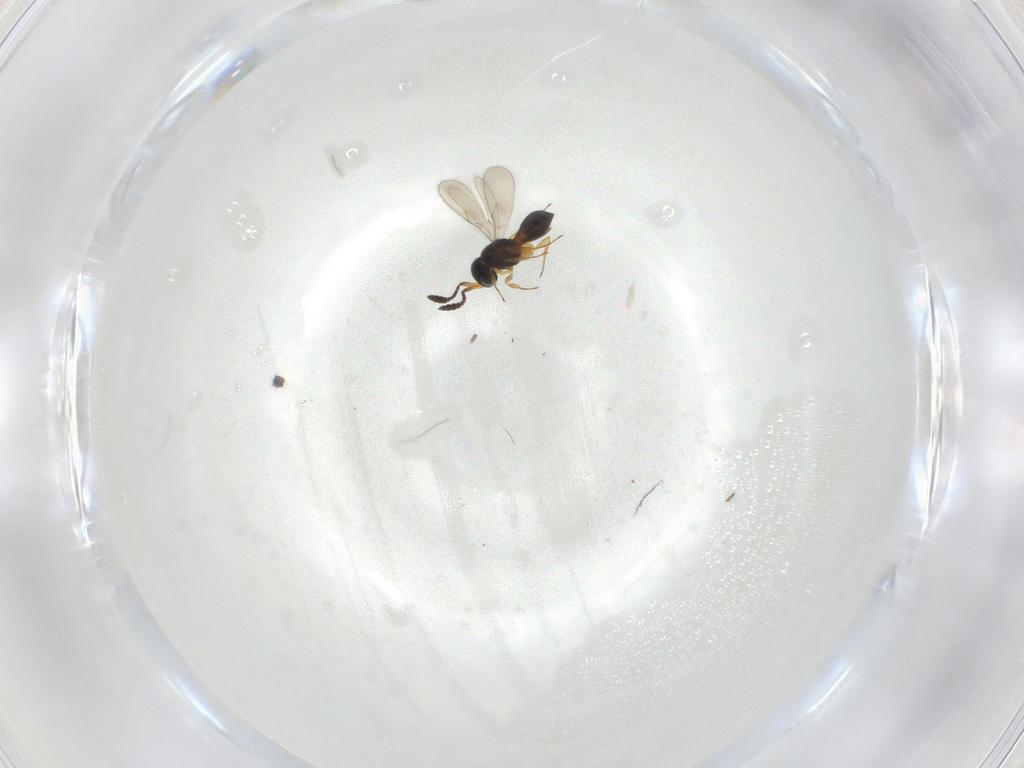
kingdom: Animalia
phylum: Arthropoda
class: Insecta
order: Hymenoptera
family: Scelionidae
